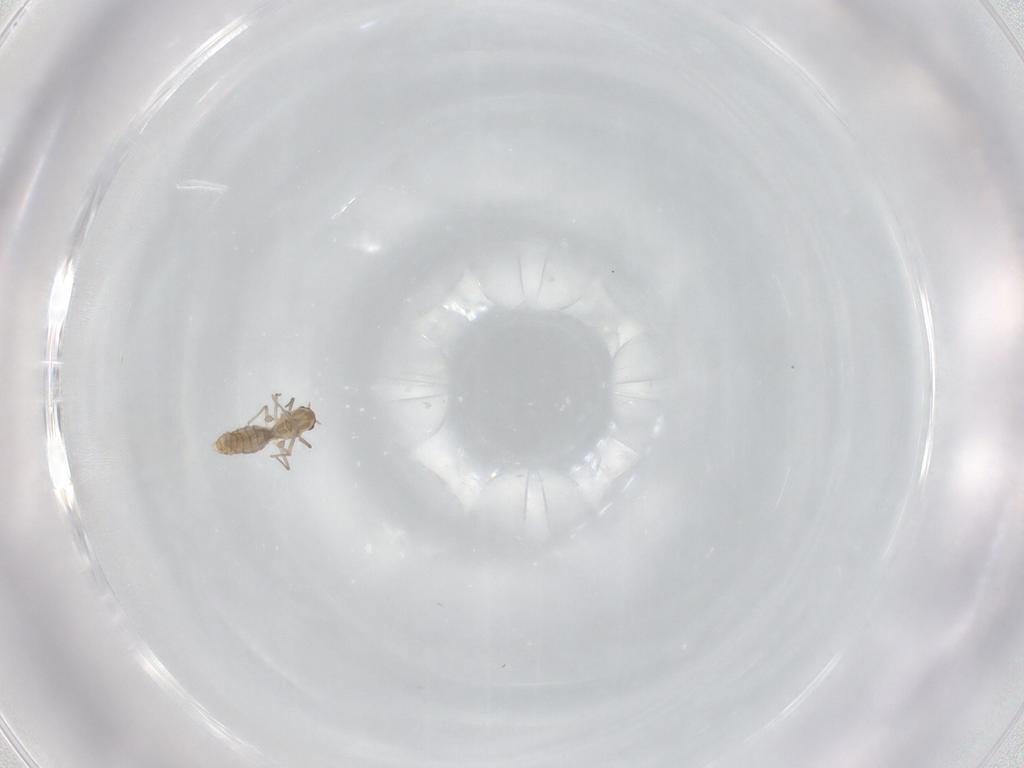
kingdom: Animalia
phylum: Arthropoda
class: Insecta
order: Diptera
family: Chironomidae
